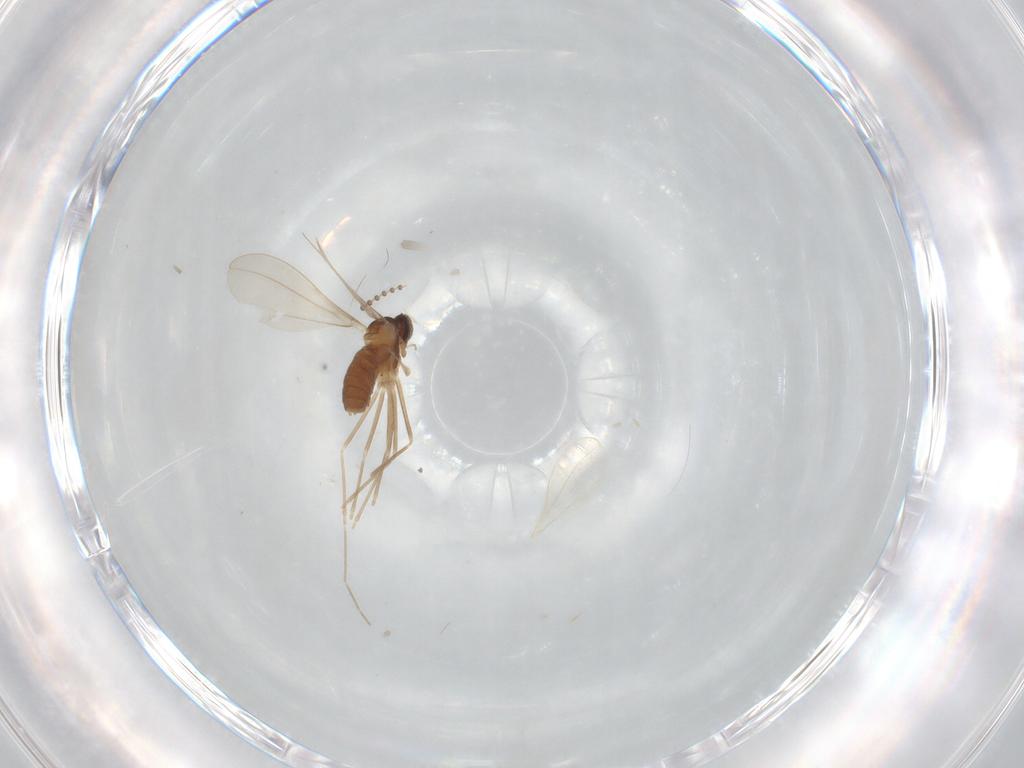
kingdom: Animalia
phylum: Arthropoda
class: Insecta
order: Diptera
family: Cecidomyiidae
